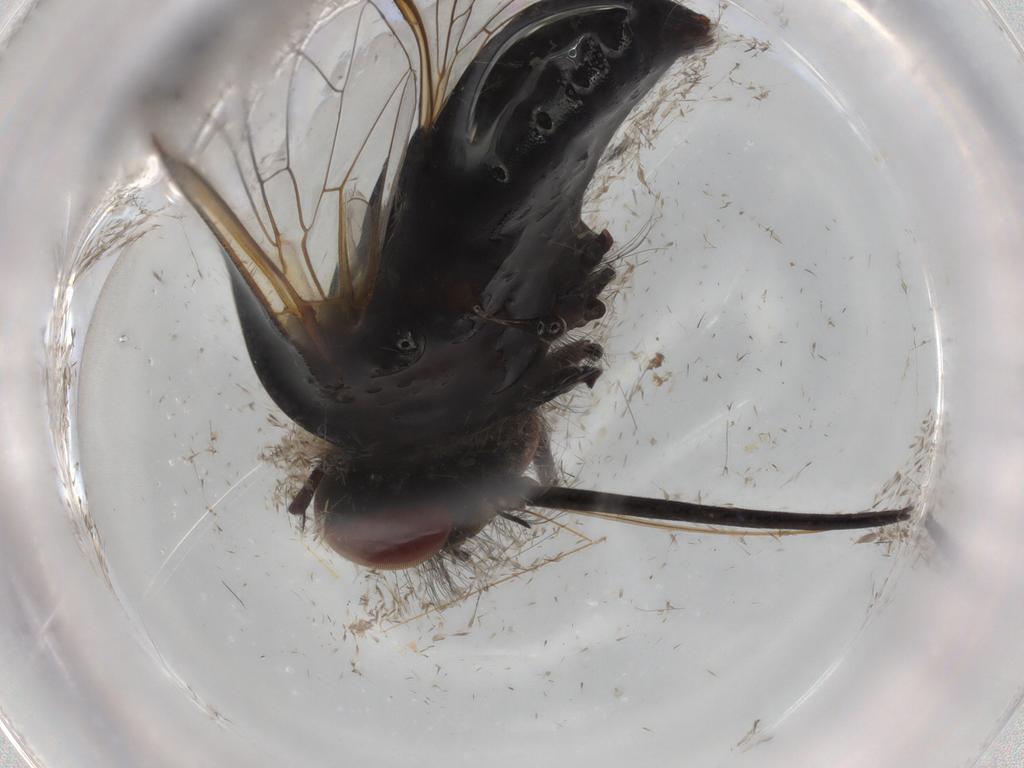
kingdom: Animalia
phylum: Arthropoda
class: Insecta
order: Diptera
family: Bombyliidae
